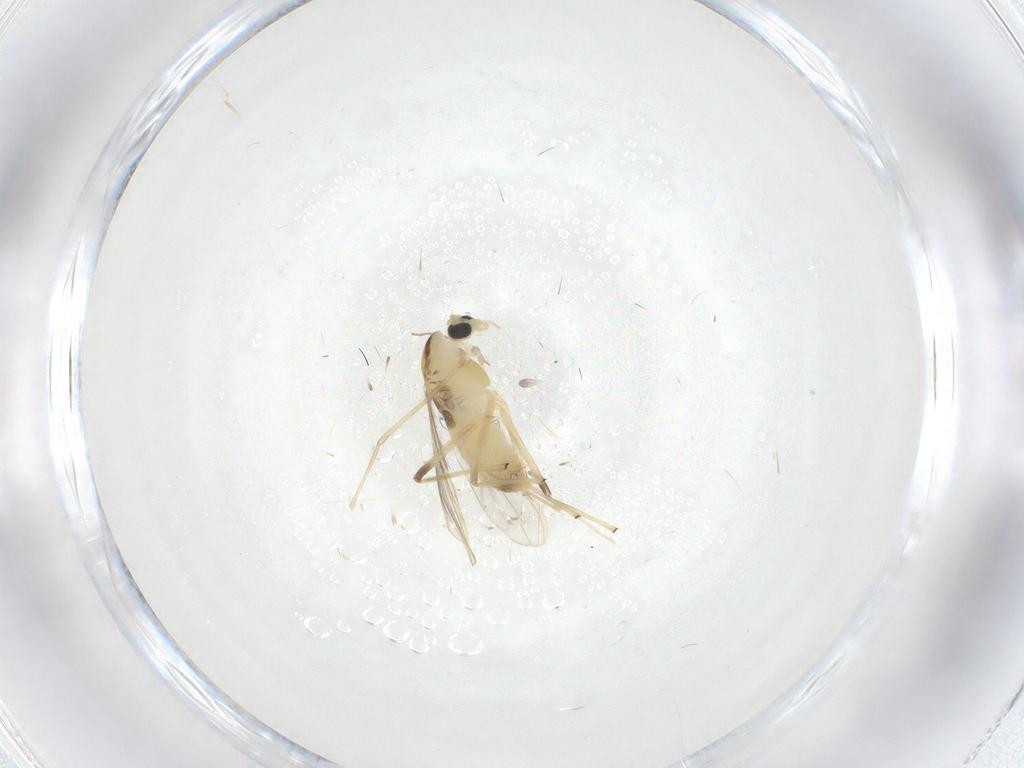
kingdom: Animalia
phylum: Arthropoda
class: Insecta
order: Diptera
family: Chironomidae
